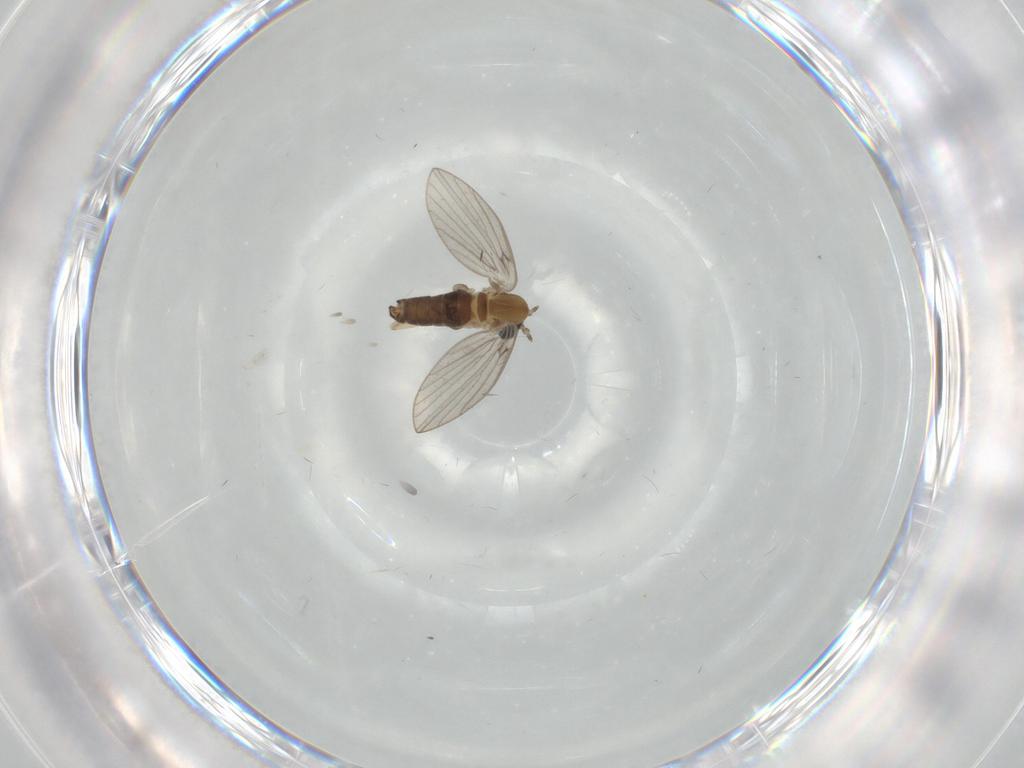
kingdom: Animalia
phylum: Arthropoda
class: Insecta
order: Diptera
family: Psychodidae
